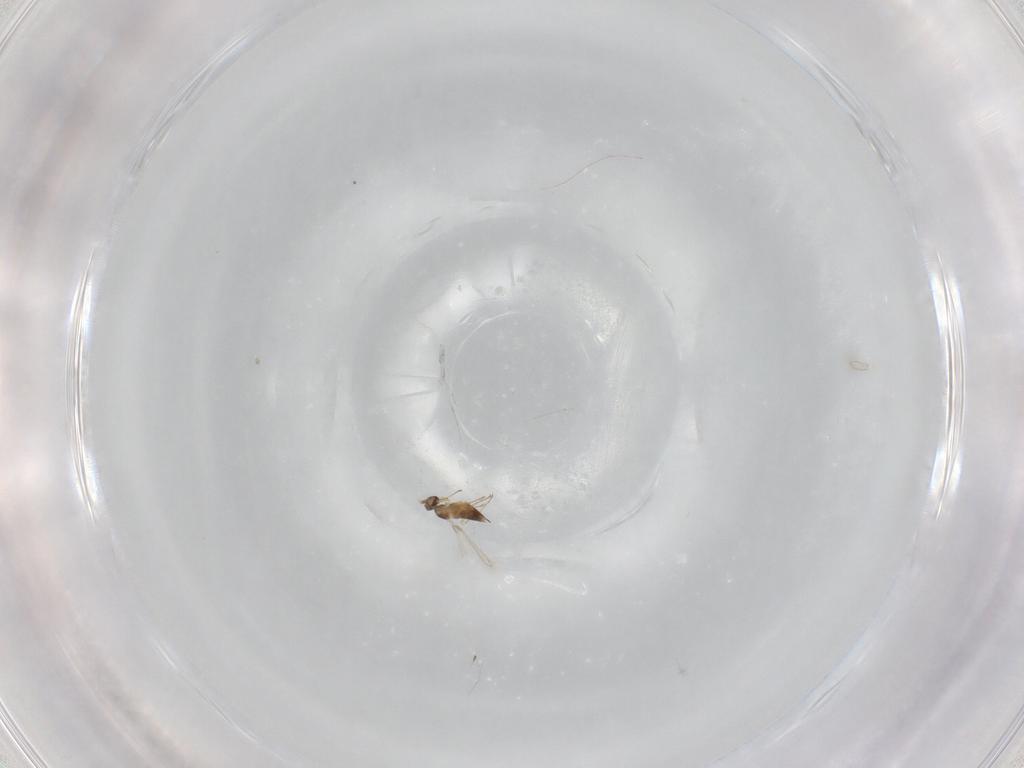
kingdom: Animalia
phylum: Arthropoda
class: Insecta
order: Hymenoptera
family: Mymaridae
